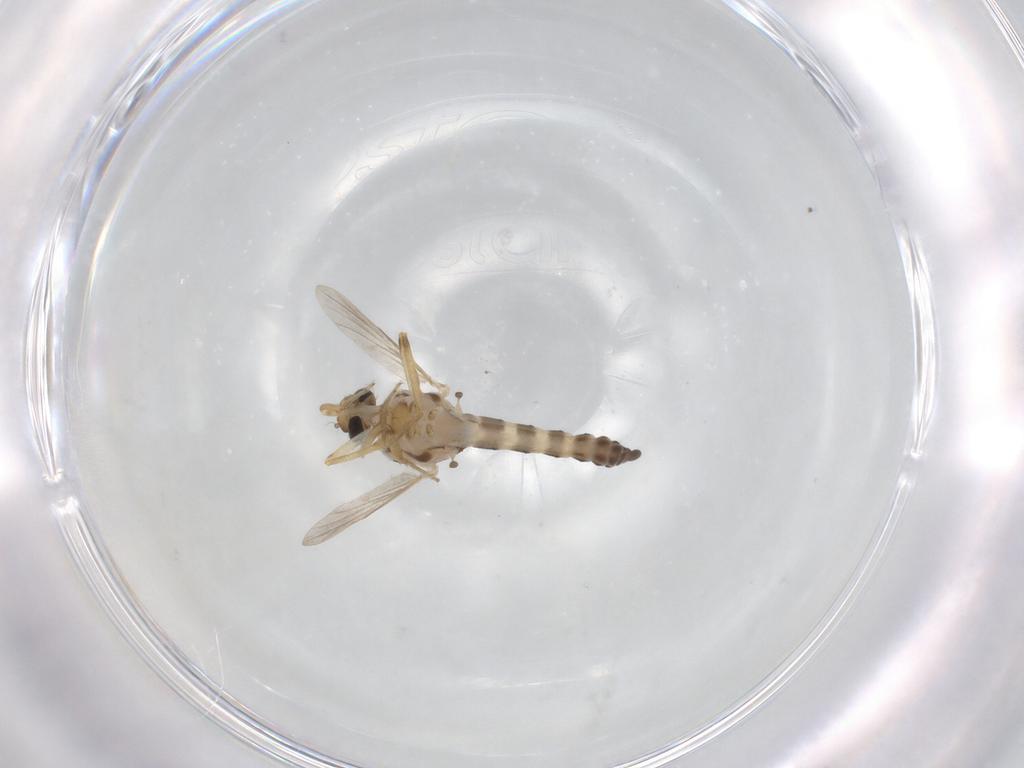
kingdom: Animalia
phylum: Arthropoda
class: Insecta
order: Diptera
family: Ceratopogonidae
